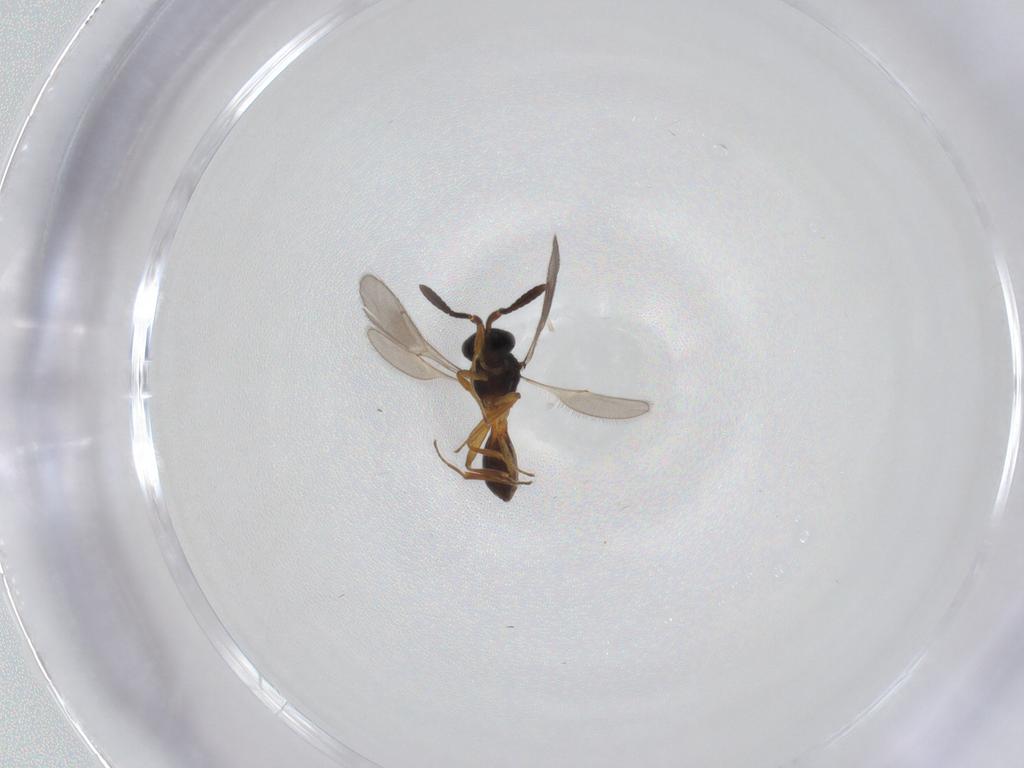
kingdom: Animalia
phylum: Arthropoda
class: Insecta
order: Hymenoptera
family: Scelionidae
